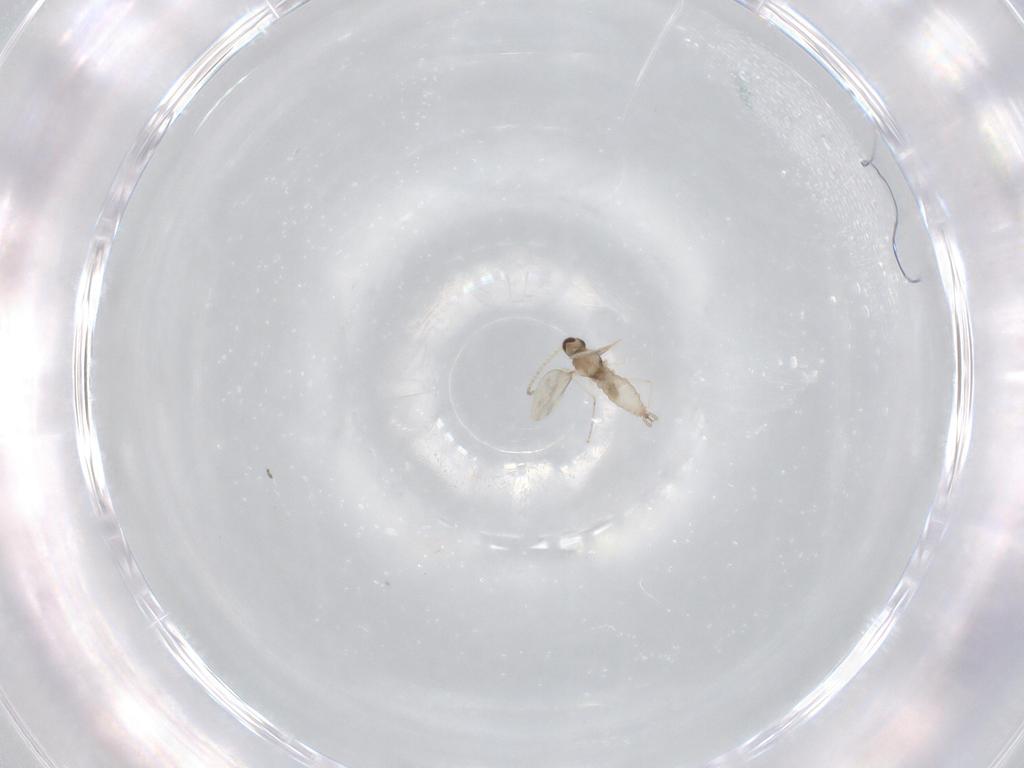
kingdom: Animalia
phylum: Arthropoda
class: Insecta
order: Diptera
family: Cecidomyiidae
